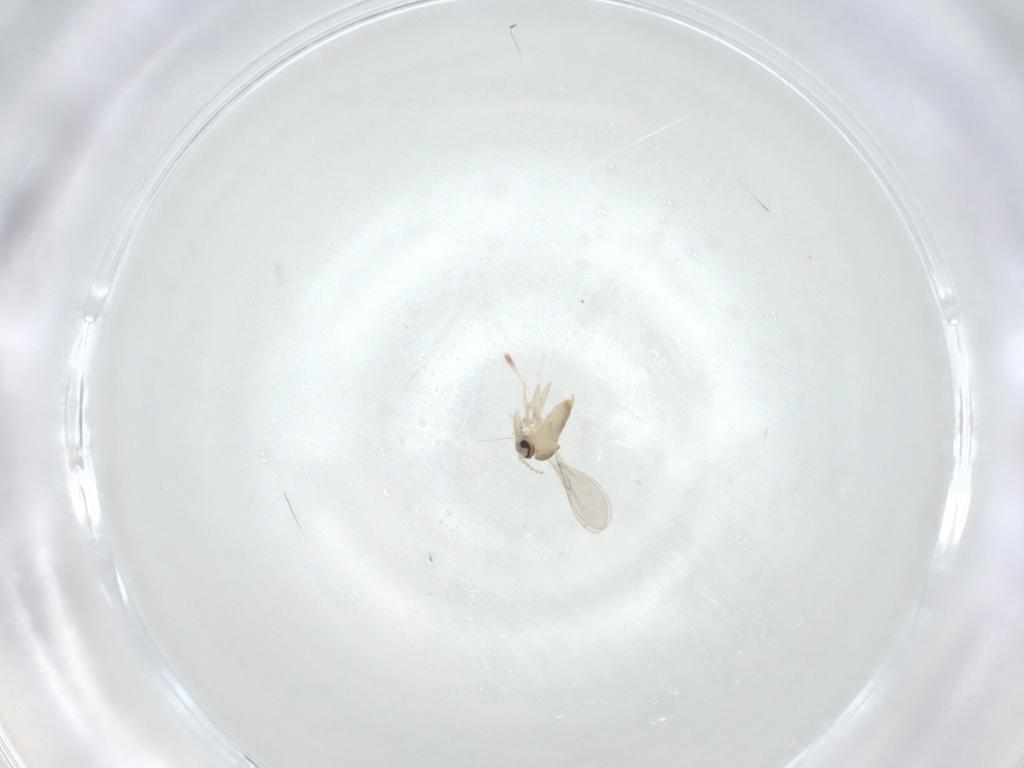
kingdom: Animalia
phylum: Arthropoda
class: Insecta
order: Diptera
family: Cecidomyiidae
